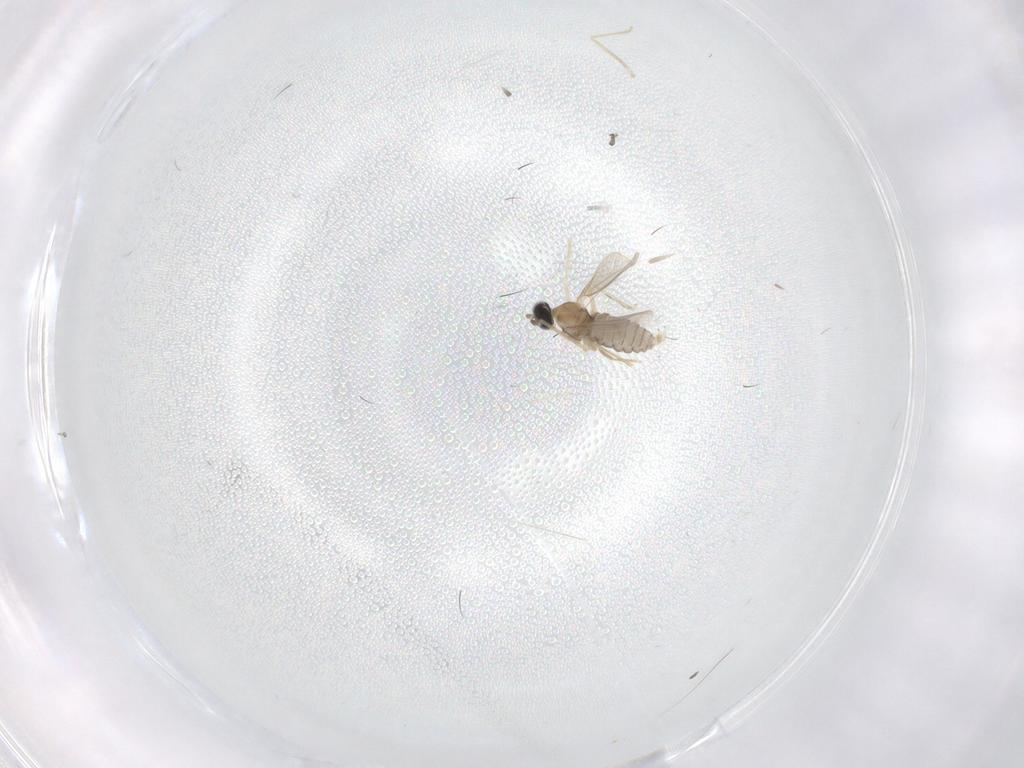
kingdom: Animalia
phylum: Arthropoda
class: Insecta
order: Diptera
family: Cecidomyiidae
